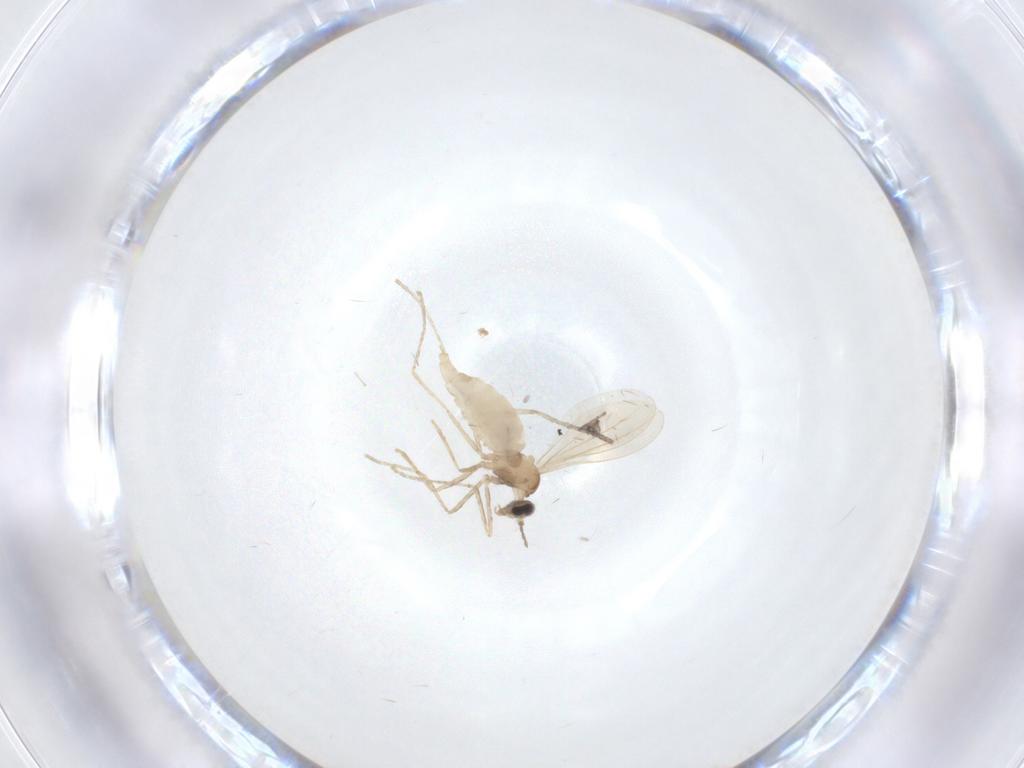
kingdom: Animalia
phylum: Arthropoda
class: Insecta
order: Diptera
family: Cecidomyiidae
